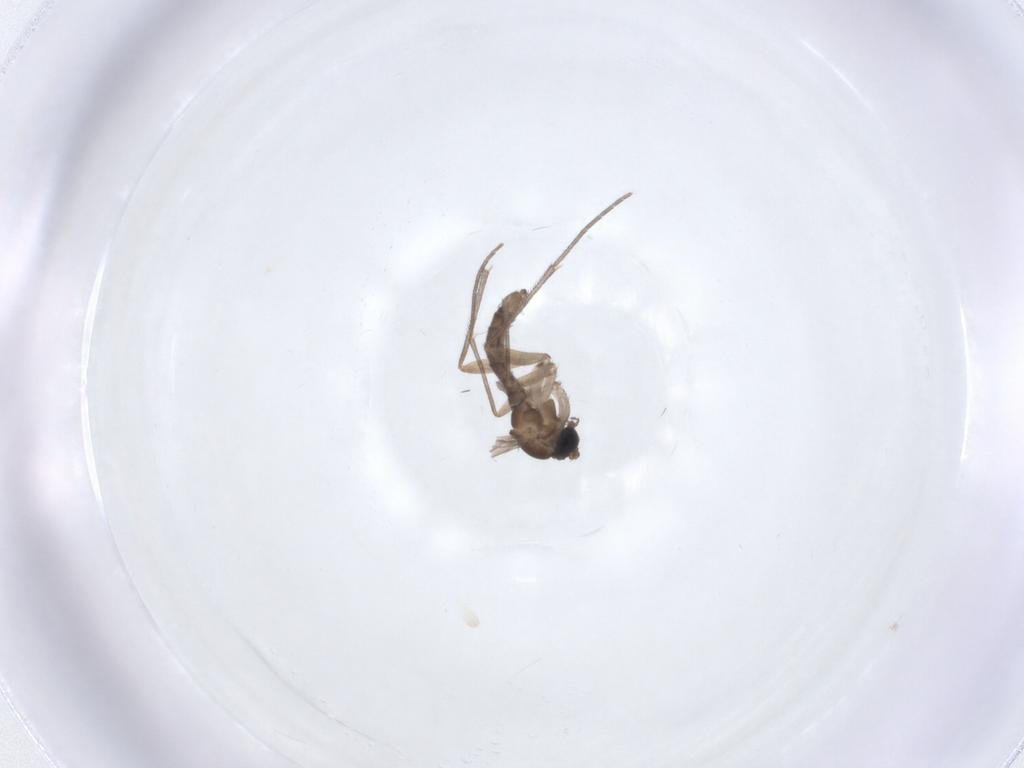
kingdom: Animalia
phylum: Arthropoda
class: Insecta
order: Diptera
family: Sciaridae
